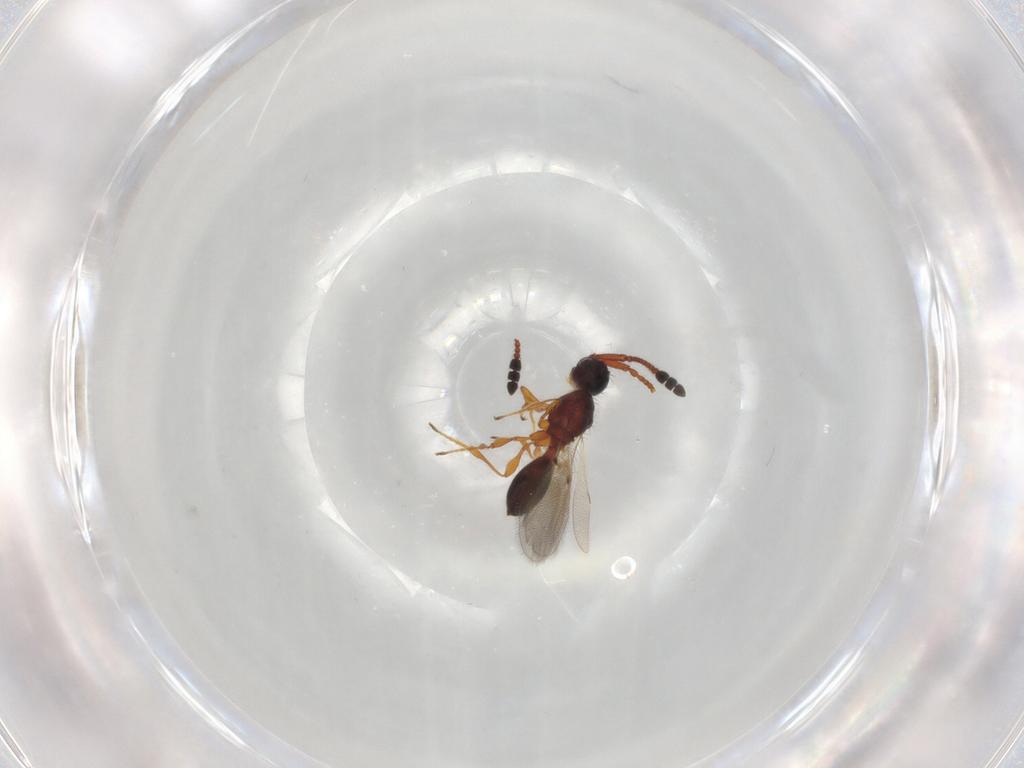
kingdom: Animalia
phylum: Arthropoda
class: Insecta
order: Hymenoptera
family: Diapriidae
